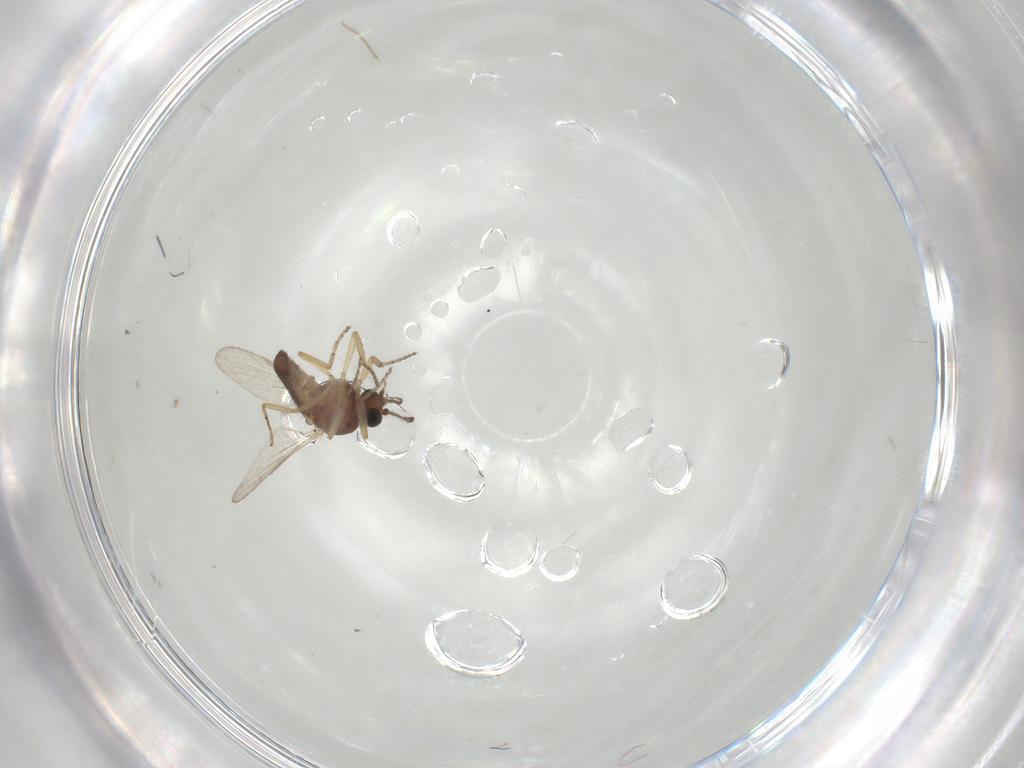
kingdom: Animalia
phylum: Arthropoda
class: Insecta
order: Diptera
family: Ceratopogonidae
